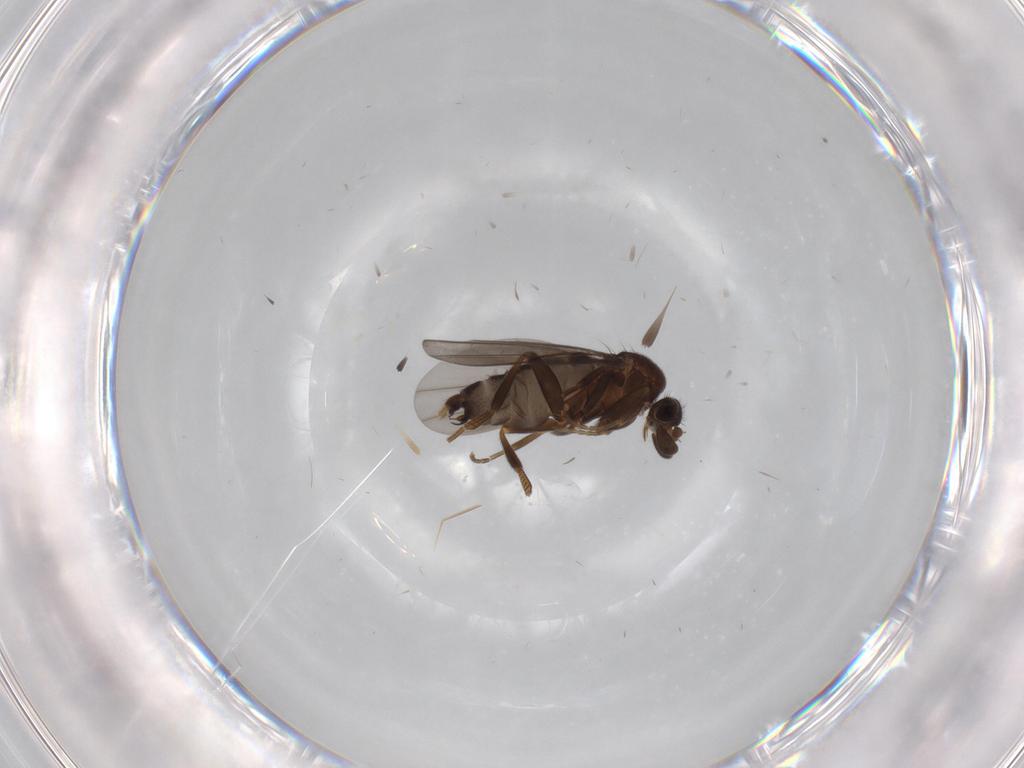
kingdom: Animalia
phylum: Arthropoda
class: Insecta
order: Diptera
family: Phoridae
